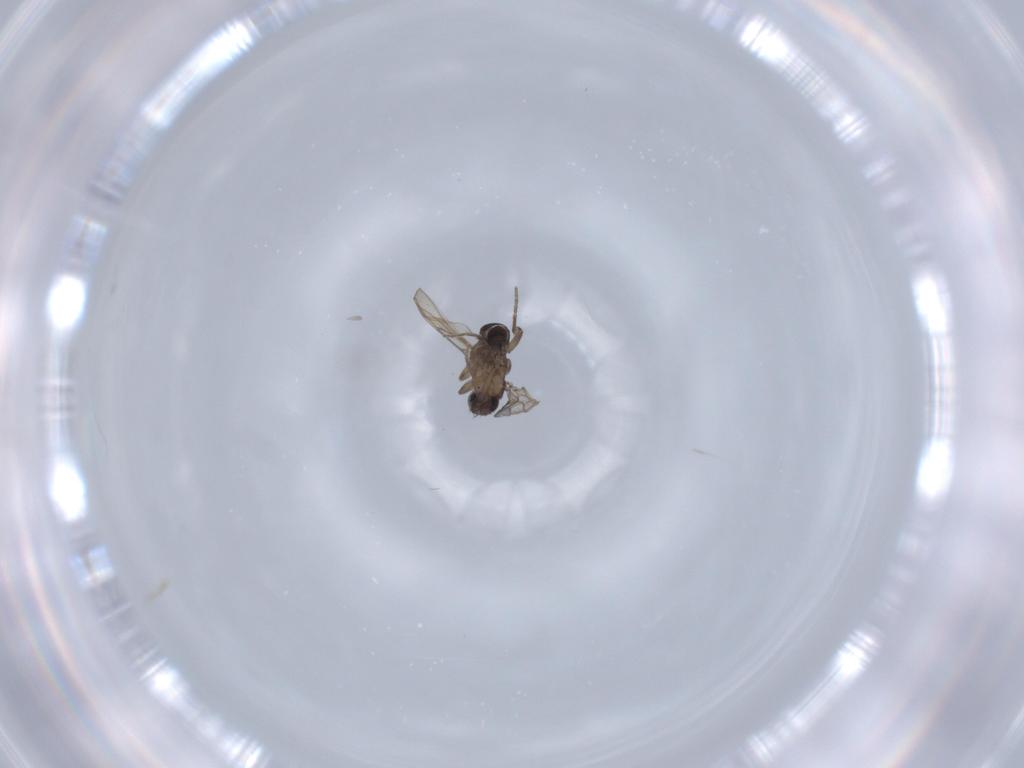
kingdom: Animalia
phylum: Arthropoda
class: Insecta
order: Diptera
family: Phoridae
